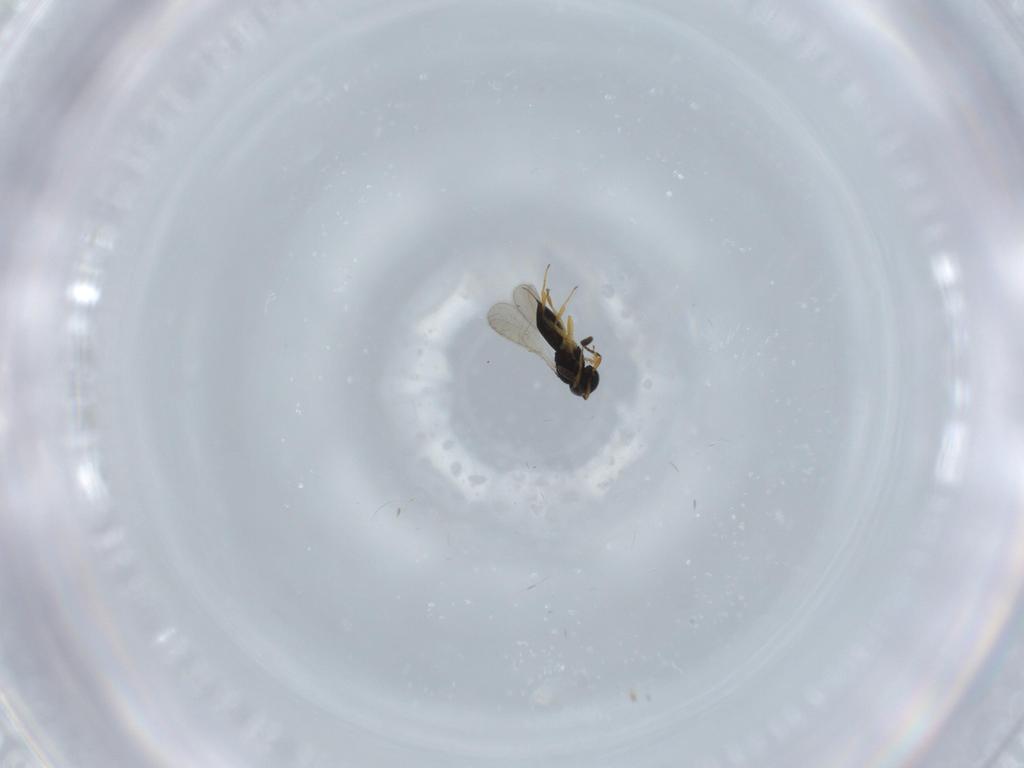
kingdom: Animalia
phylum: Arthropoda
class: Insecta
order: Hymenoptera
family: Scelionidae
